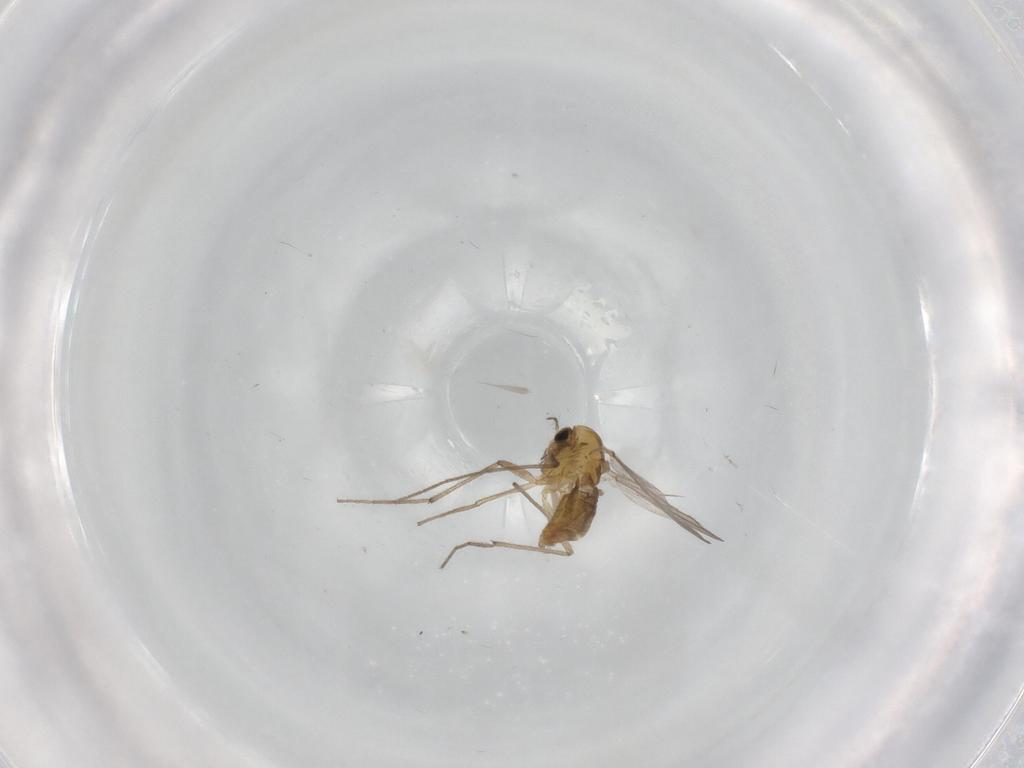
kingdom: Animalia
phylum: Arthropoda
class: Insecta
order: Diptera
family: Chironomidae
